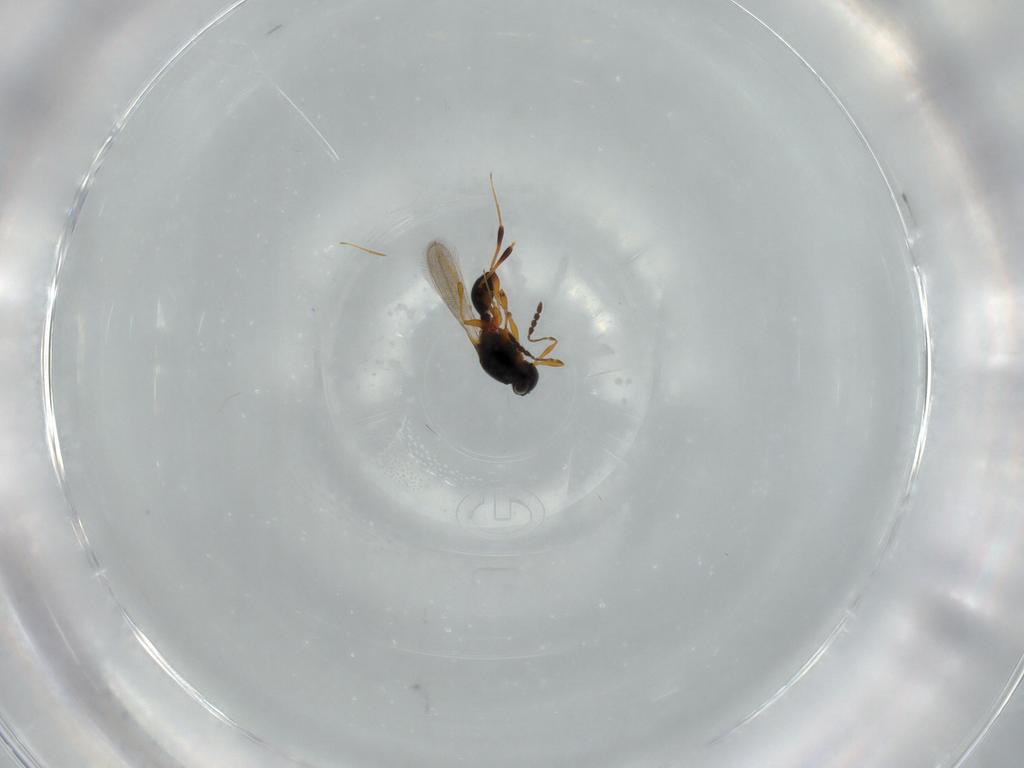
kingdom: Animalia
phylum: Arthropoda
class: Insecta
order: Hymenoptera
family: Platygastridae
